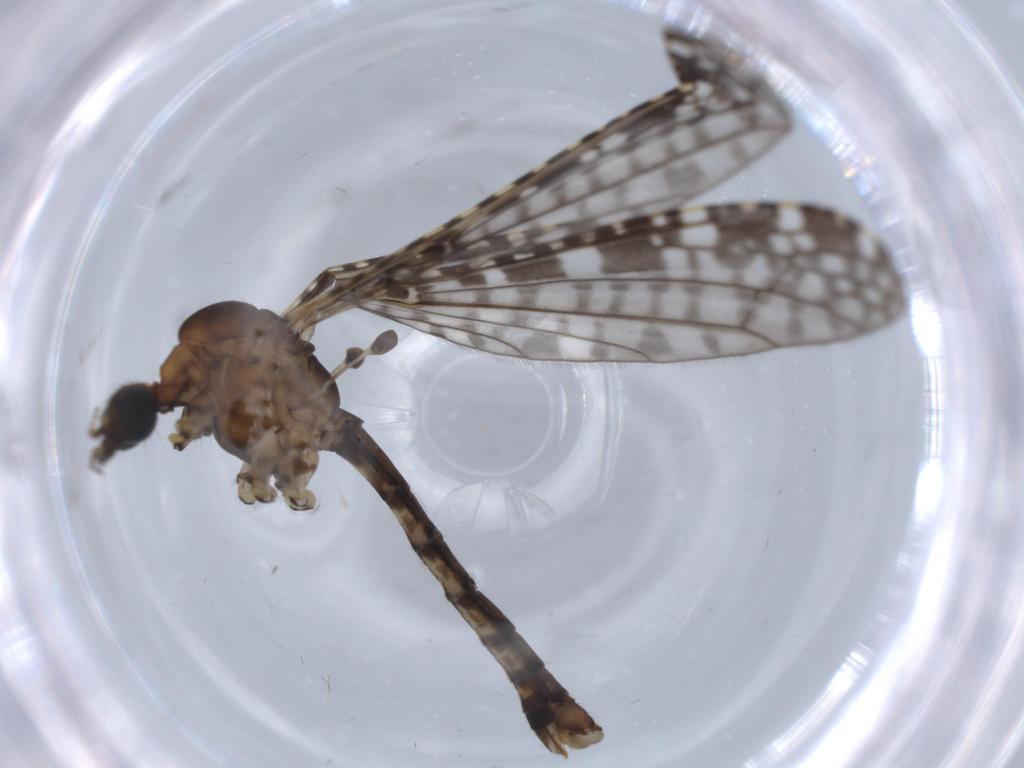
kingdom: Animalia
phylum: Arthropoda
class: Insecta
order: Diptera
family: Limoniidae
